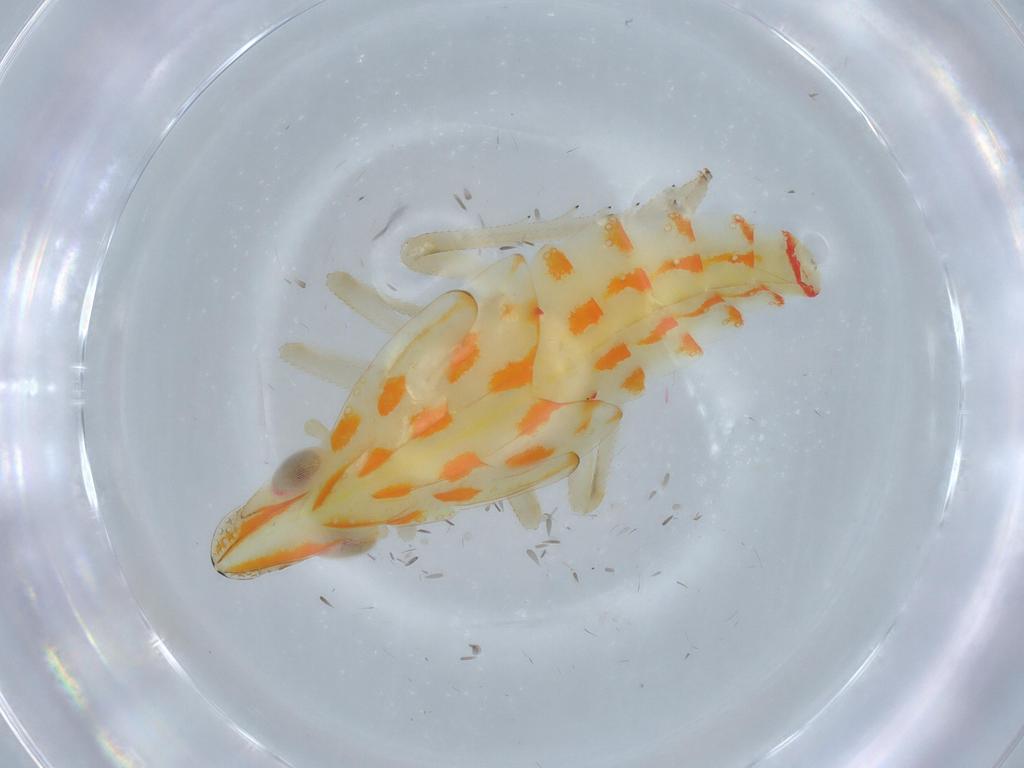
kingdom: Animalia
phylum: Arthropoda
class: Insecta
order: Hemiptera
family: Tropiduchidae
